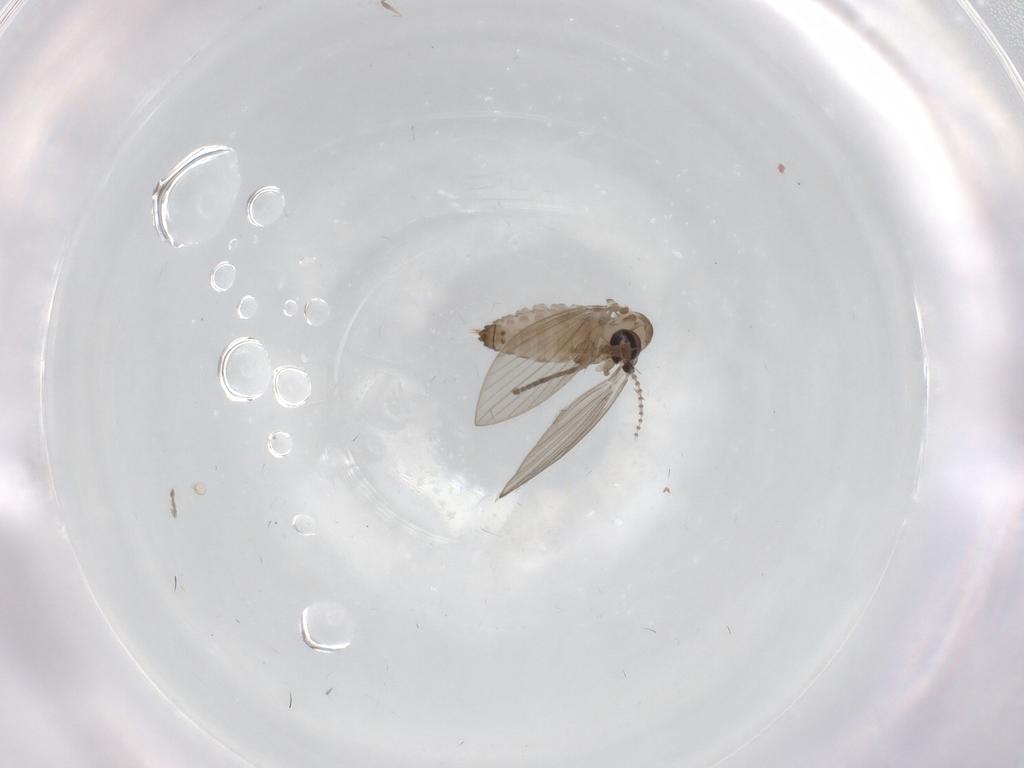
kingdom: Animalia
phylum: Arthropoda
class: Insecta
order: Diptera
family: Psychodidae
